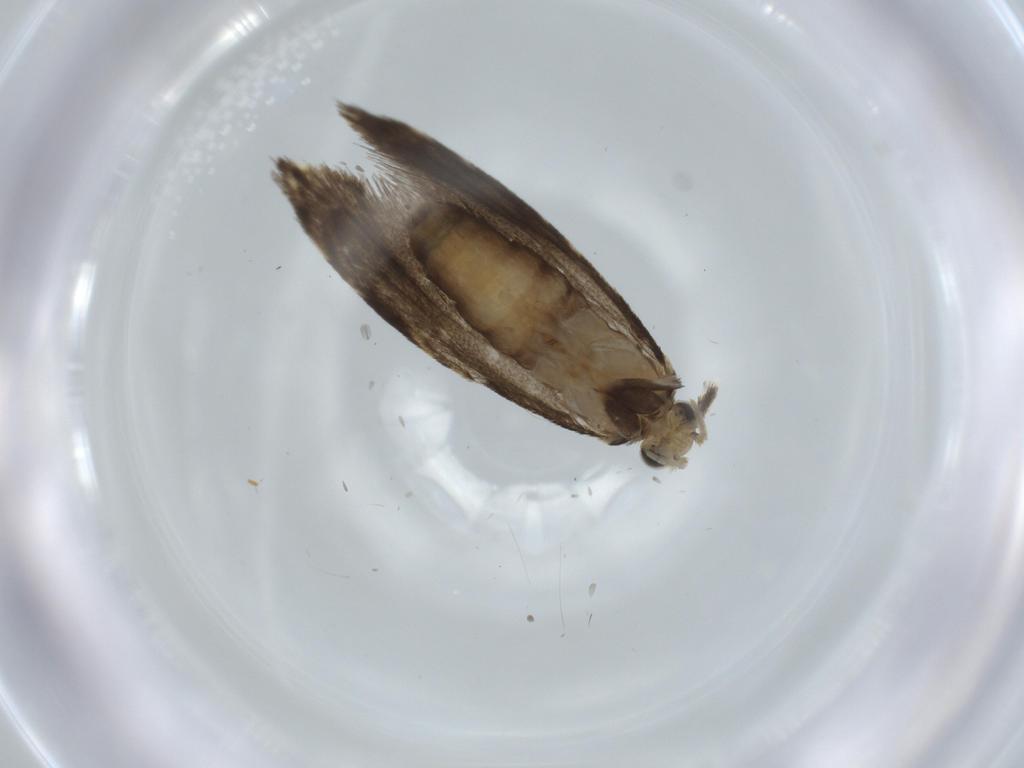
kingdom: Animalia
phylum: Arthropoda
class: Insecta
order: Lepidoptera
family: Tineidae
